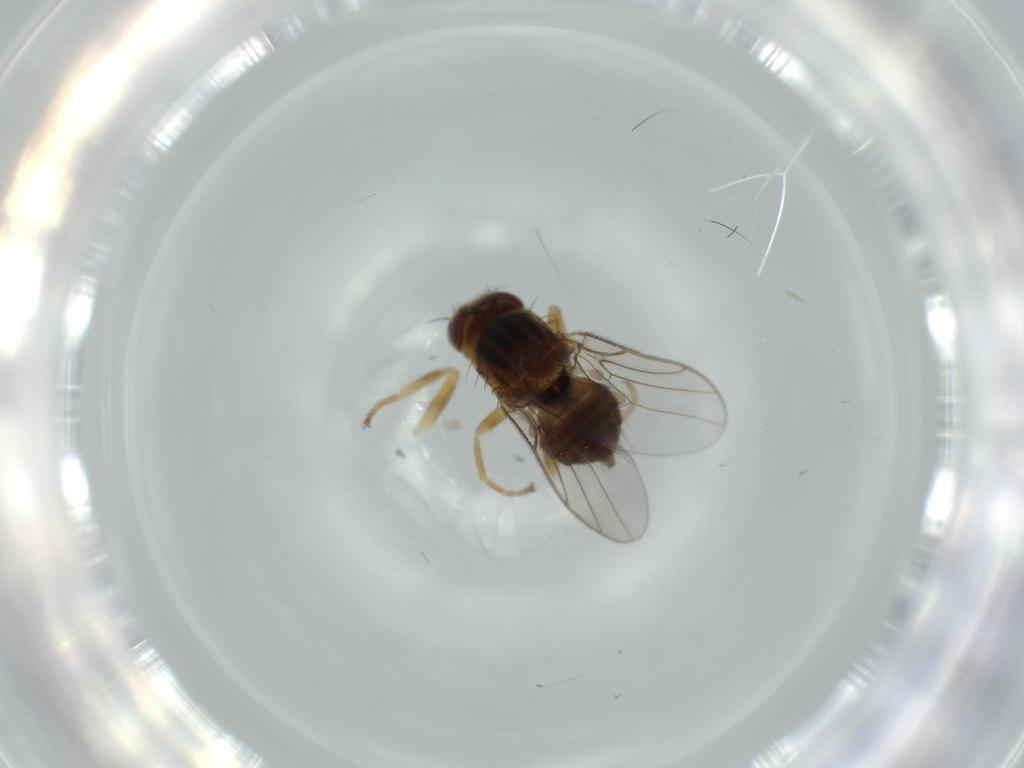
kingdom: Animalia
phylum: Arthropoda
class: Insecta
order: Diptera
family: Chloropidae
